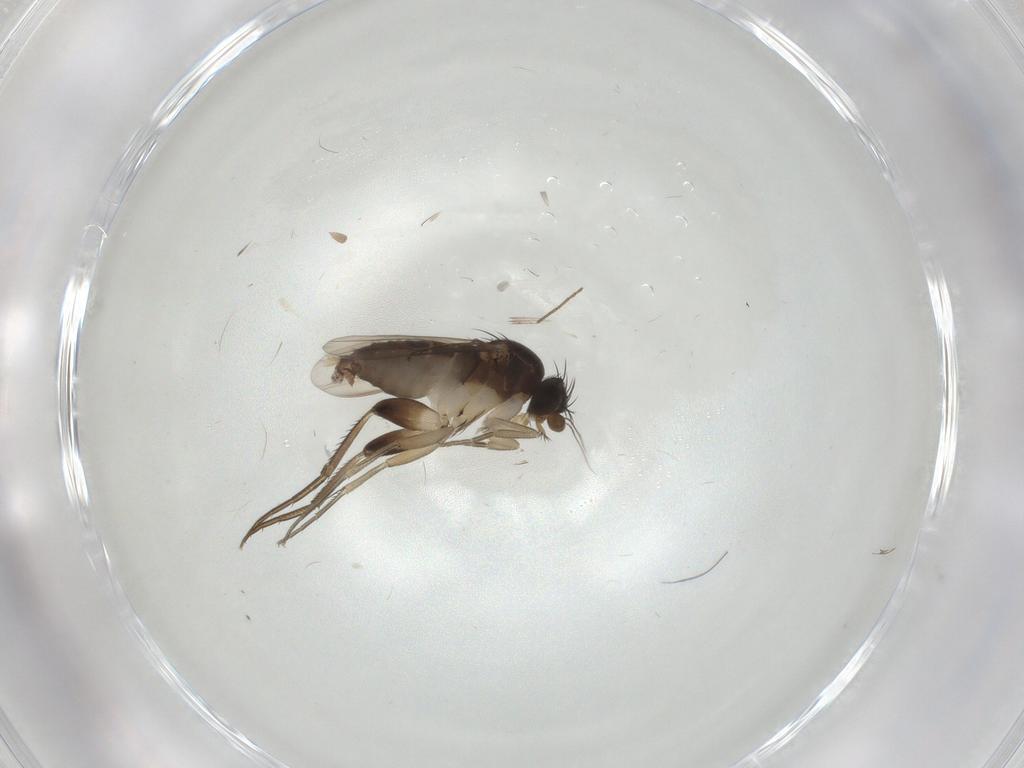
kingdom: Animalia
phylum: Arthropoda
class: Insecta
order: Diptera
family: Phoridae
